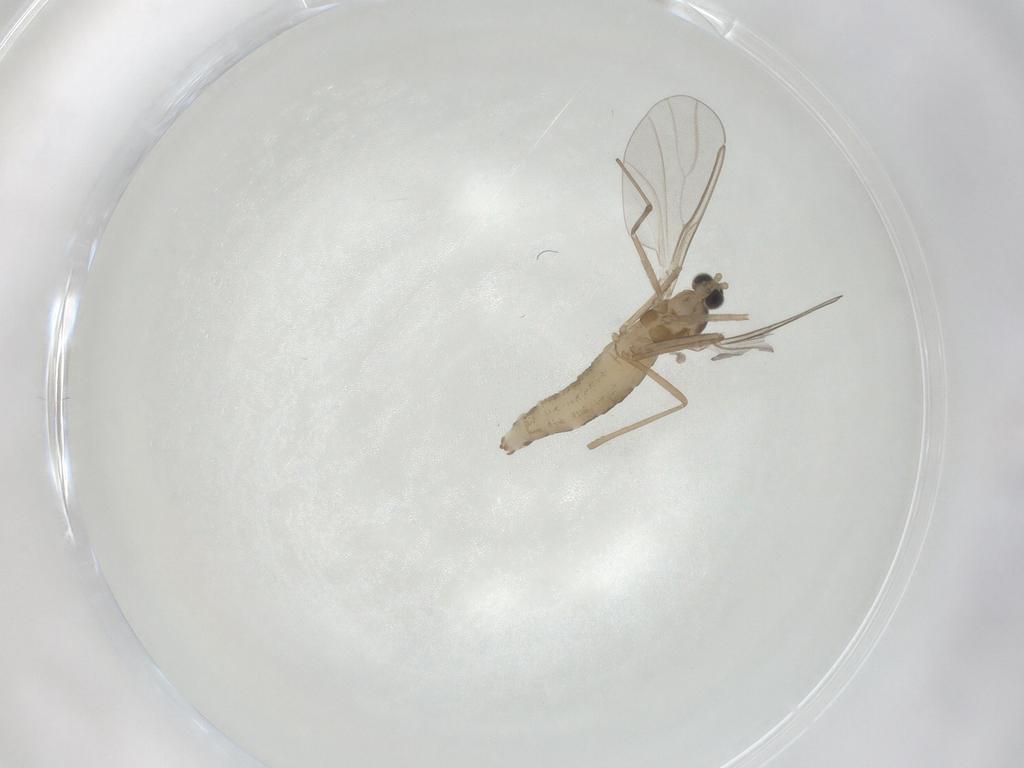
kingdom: Animalia
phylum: Arthropoda
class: Insecta
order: Diptera
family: Cecidomyiidae
